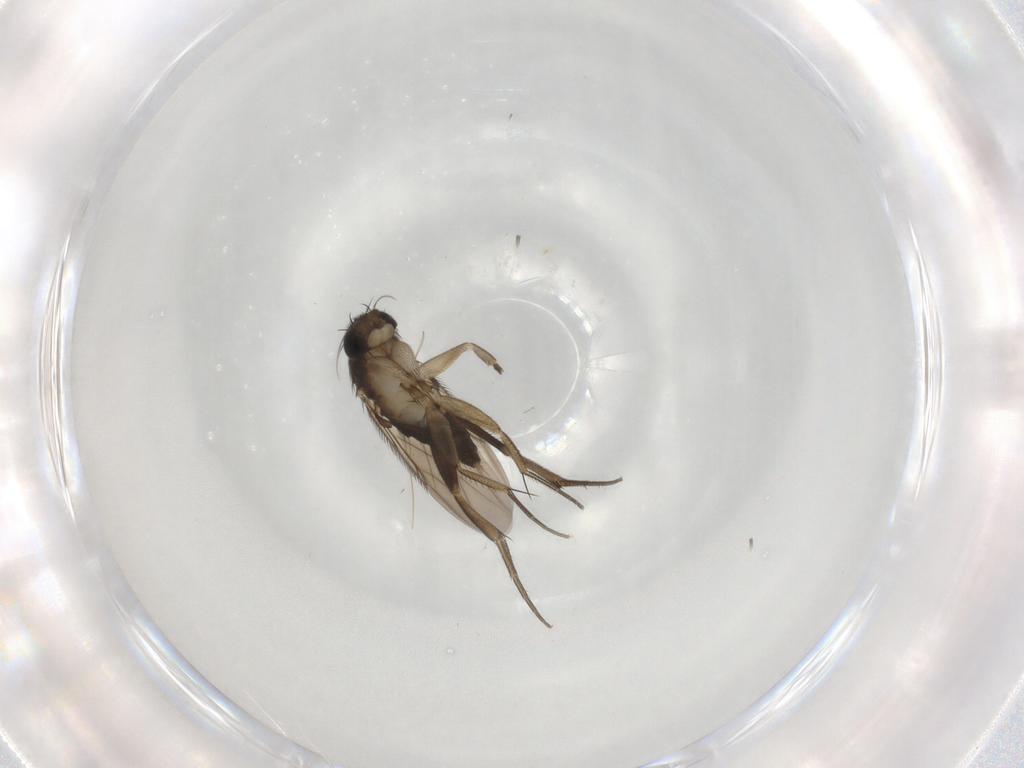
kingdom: Animalia
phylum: Arthropoda
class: Insecta
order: Diptera
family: Phoridae
